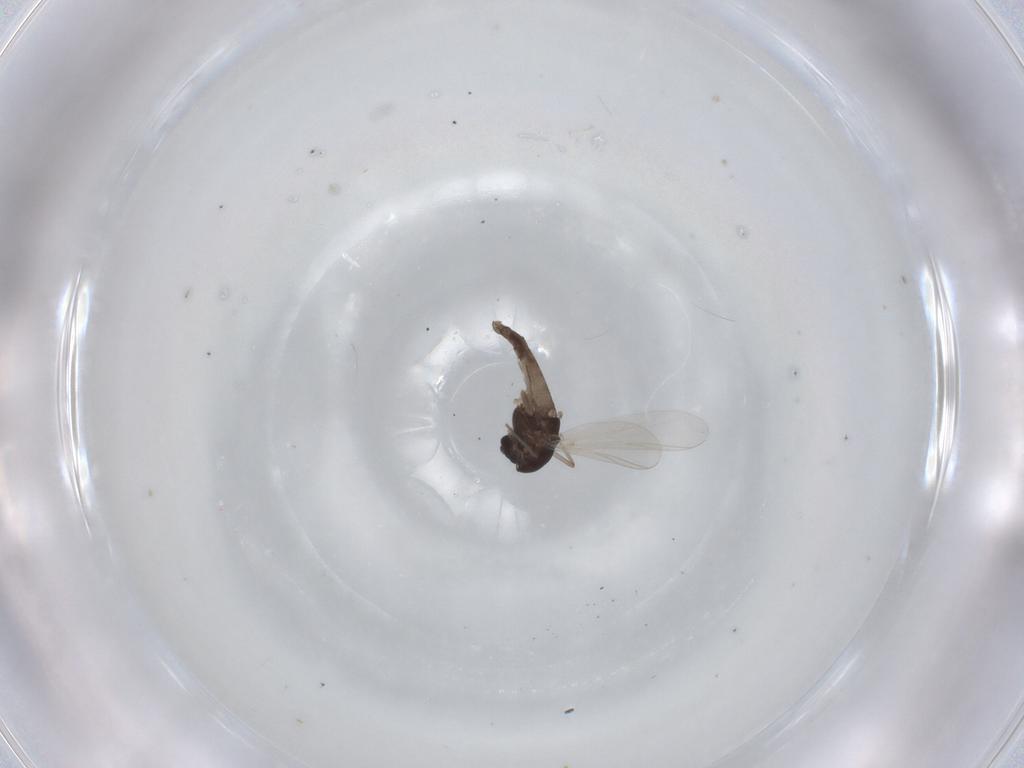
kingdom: Animalia
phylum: Arthropoda
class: Insecta
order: Diptera
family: Chironomidae
